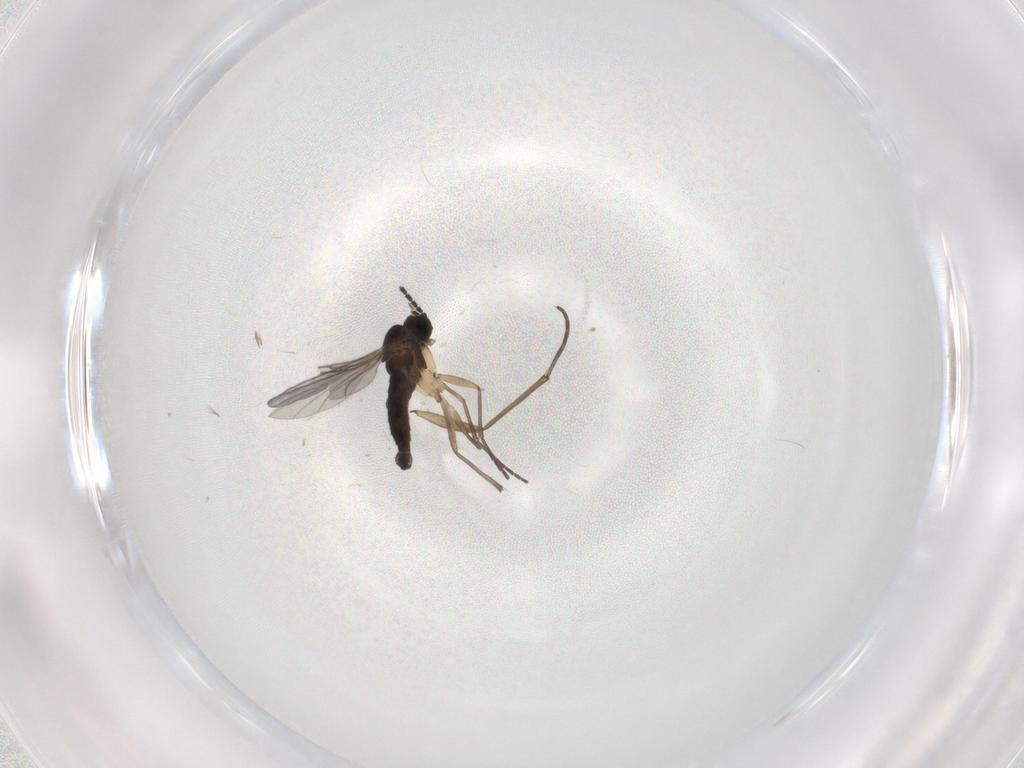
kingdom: Animalia
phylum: Arthropoda
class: Insecta
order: Diptera
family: Sciaridae
